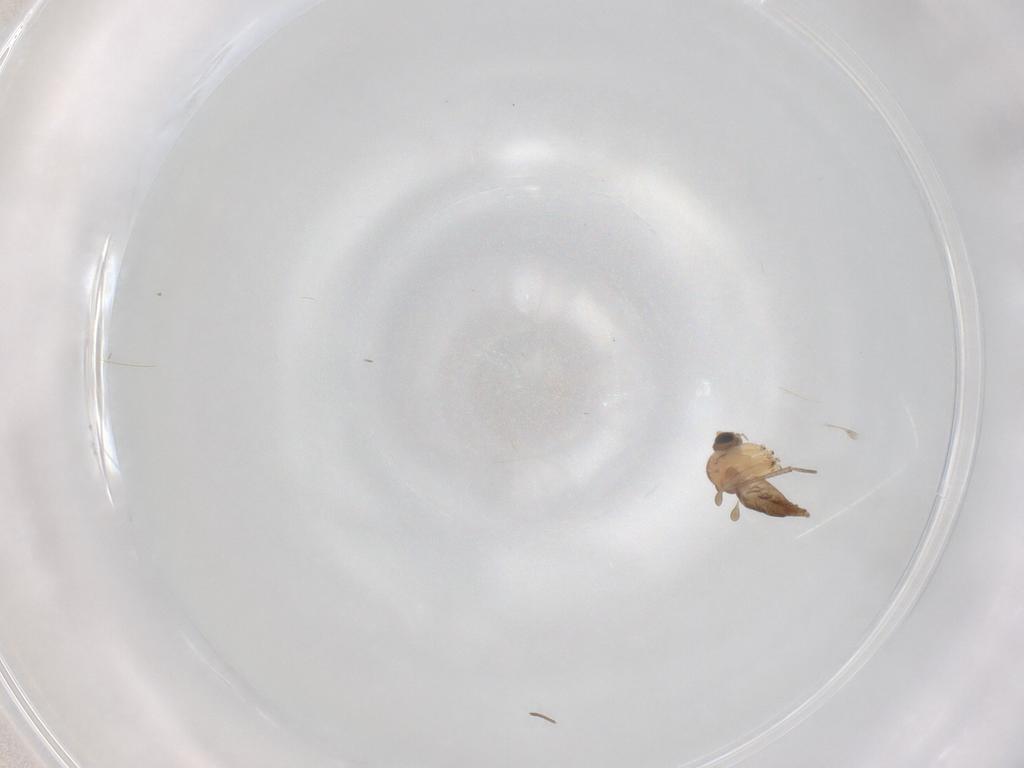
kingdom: Animalia
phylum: Arthropoda
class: Insecta
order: Diptera
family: Sciaridae
